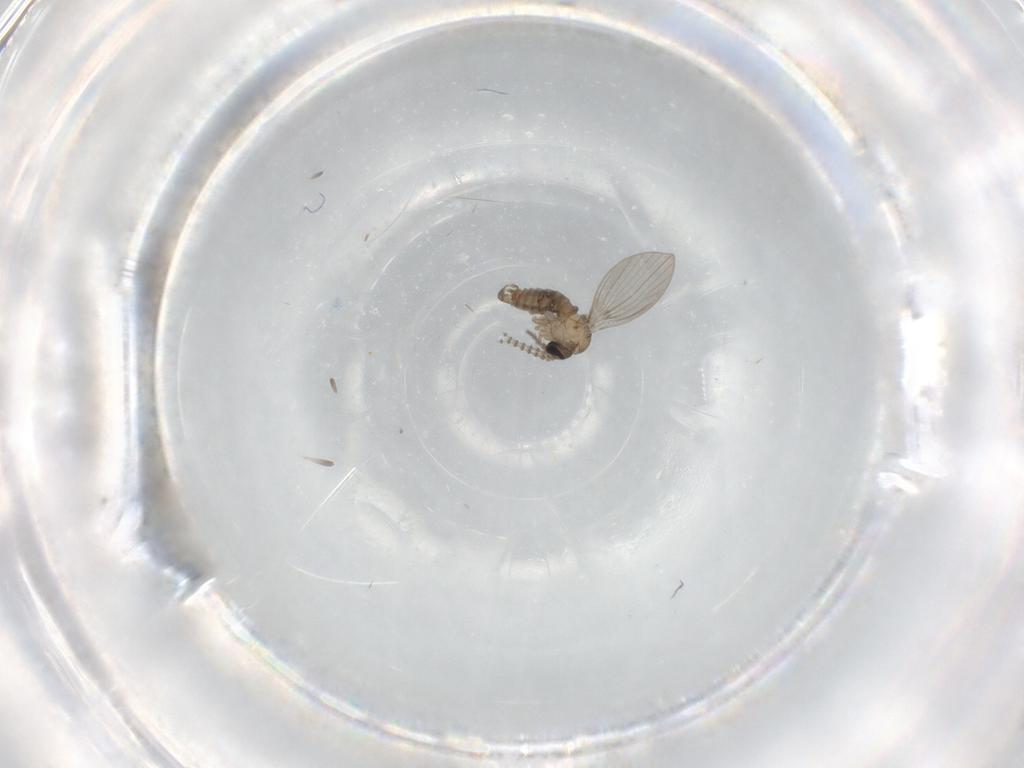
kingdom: Animalia
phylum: Arthropoda
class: Insecta
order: Diptera
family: Psychodidae
